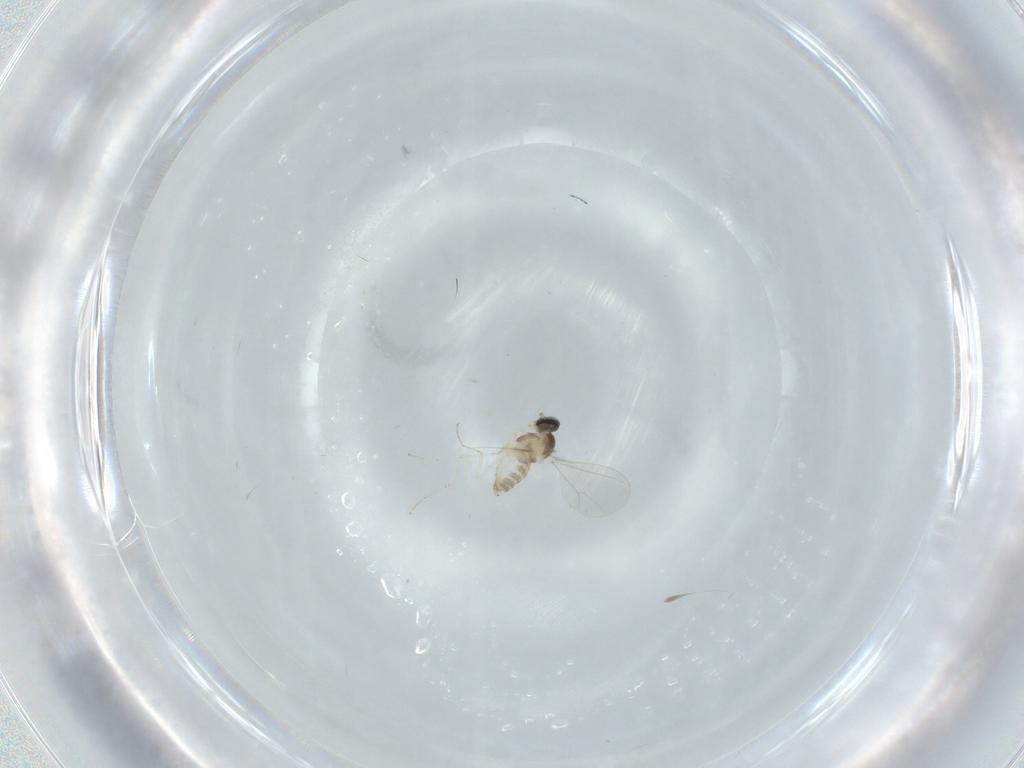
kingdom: Animalia
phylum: Arthropoda
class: Insecta
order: Diptera
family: Cecidomyiidae
